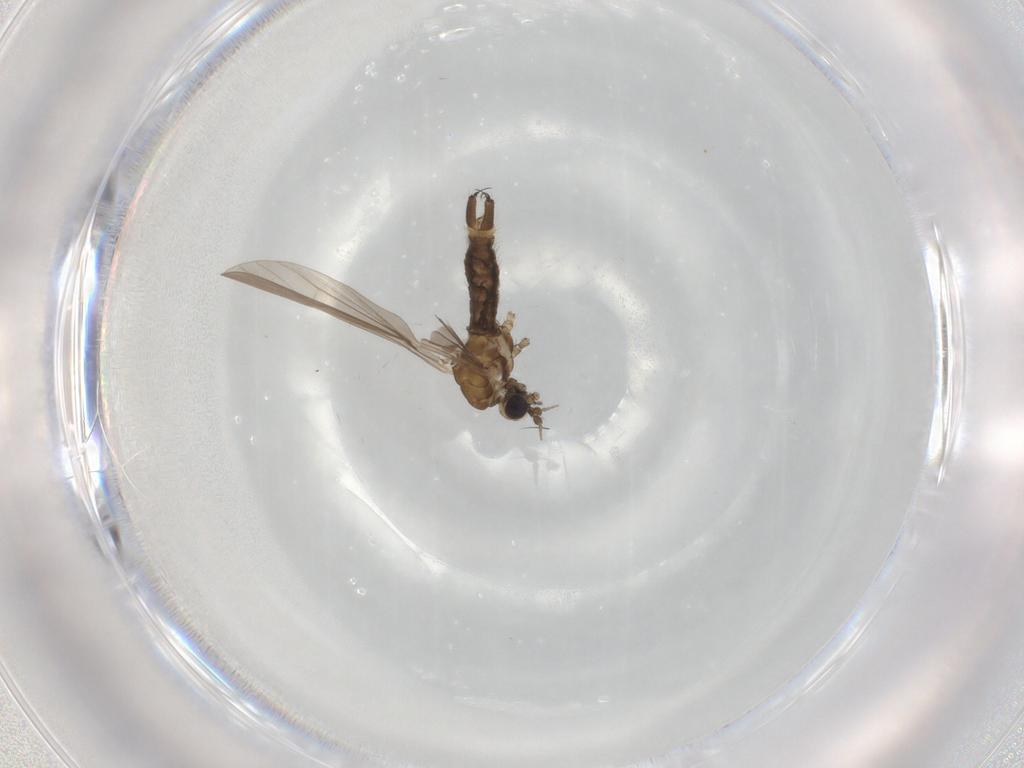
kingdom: Animalia
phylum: Arthropoda
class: Insecta
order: Diptera
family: Limoniidae
